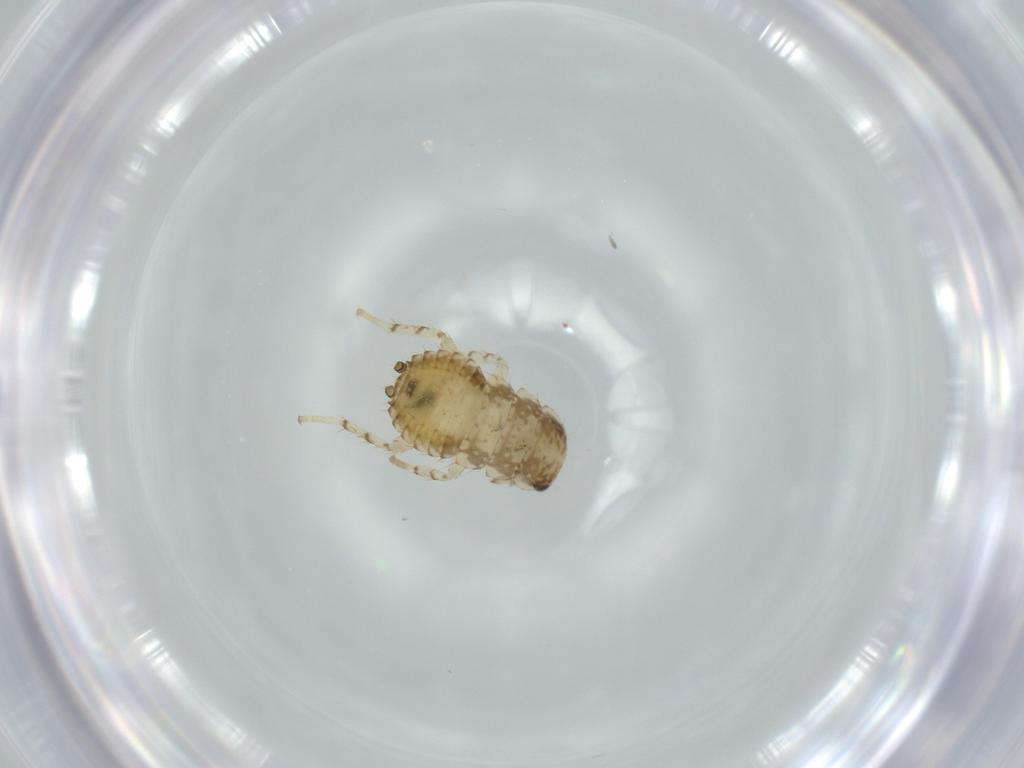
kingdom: Animalia
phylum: Arthropoda
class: Insecta
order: Blattodea
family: Ectobiidae
